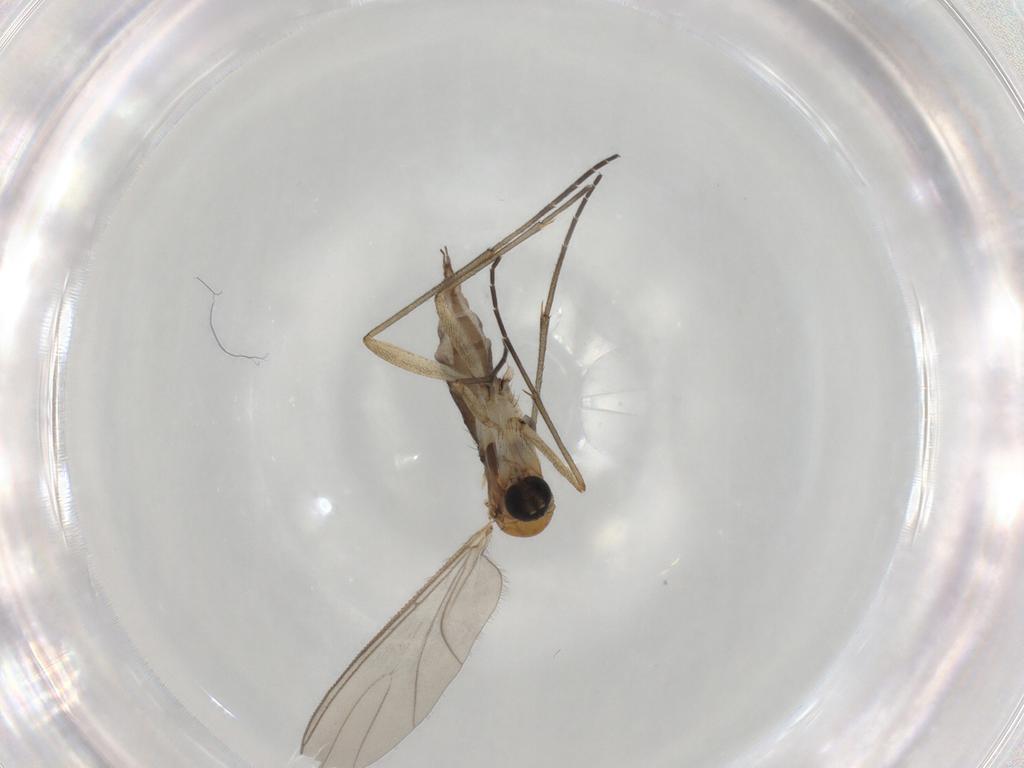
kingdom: Animalia
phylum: Arthropoda
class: Insecta
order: Diptera
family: Sciaridae
